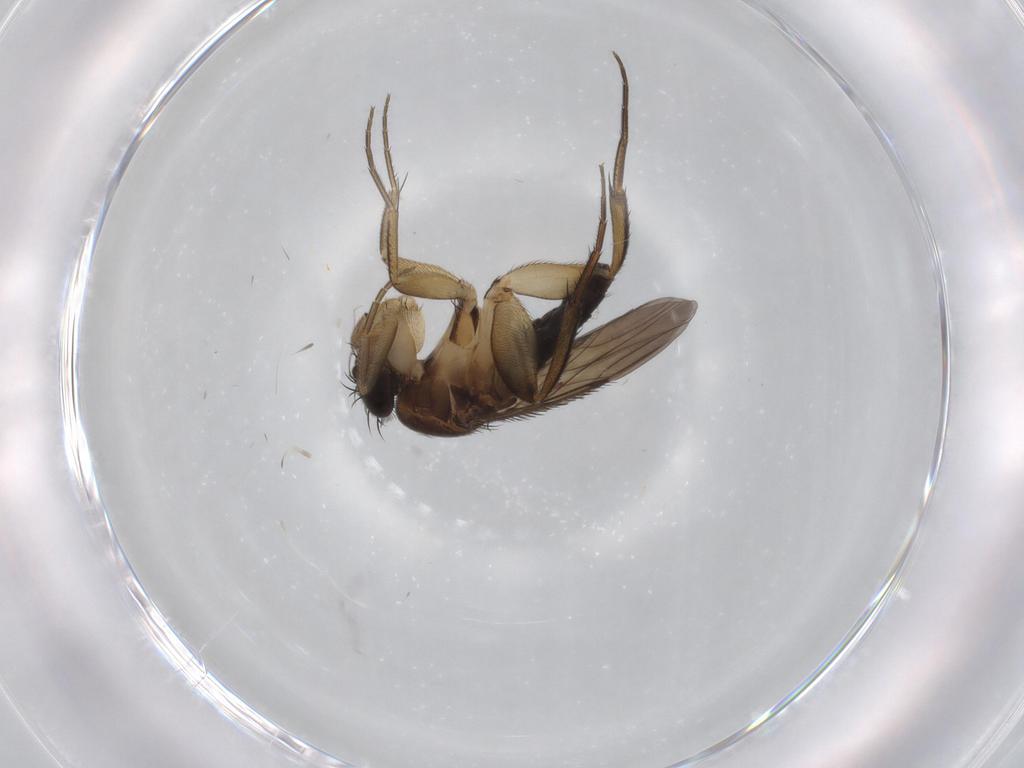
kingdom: Animalia
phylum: Arthropoda
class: Insecta
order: Diptera
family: Phoridae
